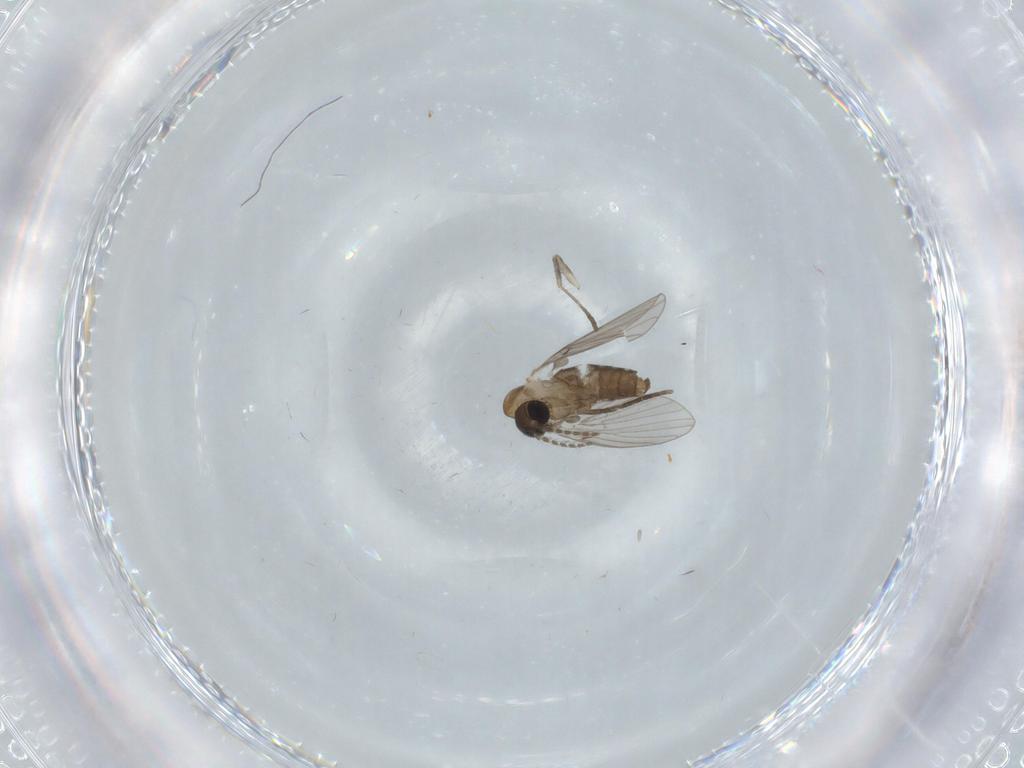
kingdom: Animalia
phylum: Arthropoda
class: Insecta
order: Diptera
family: Psychodidae
